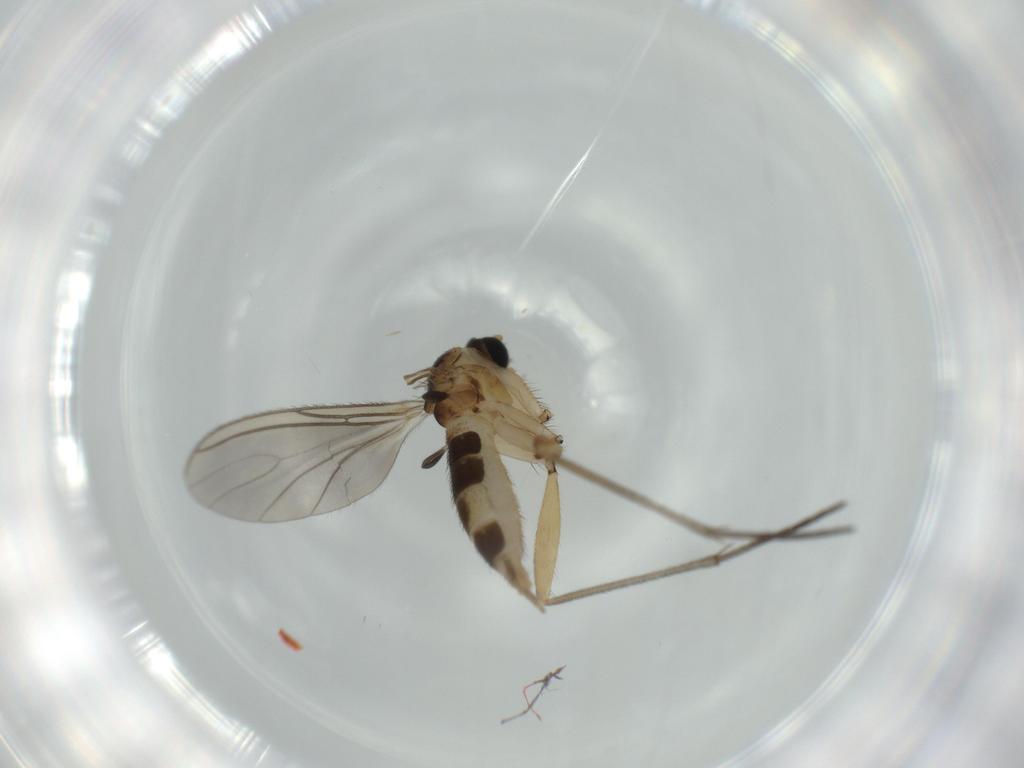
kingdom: Animalia
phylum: Arthropoda
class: Insecta
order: Diptera
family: Sciaridae
